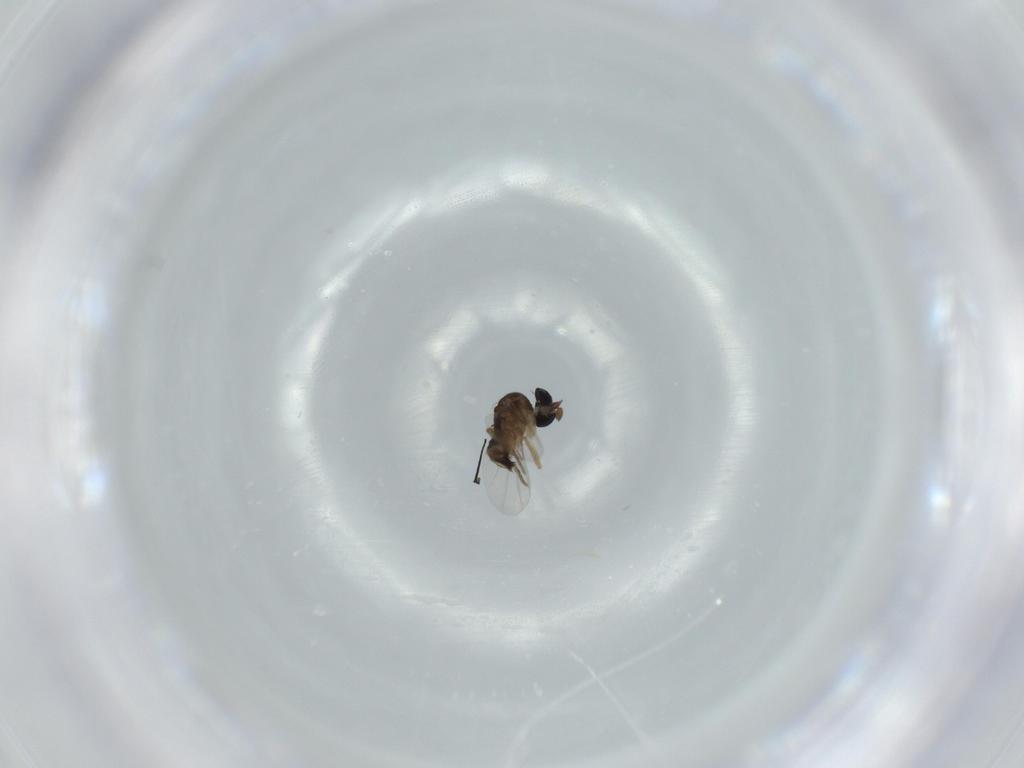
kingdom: Animalia
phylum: Arthropoda
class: Insecta
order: Diptera
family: Phoridae
